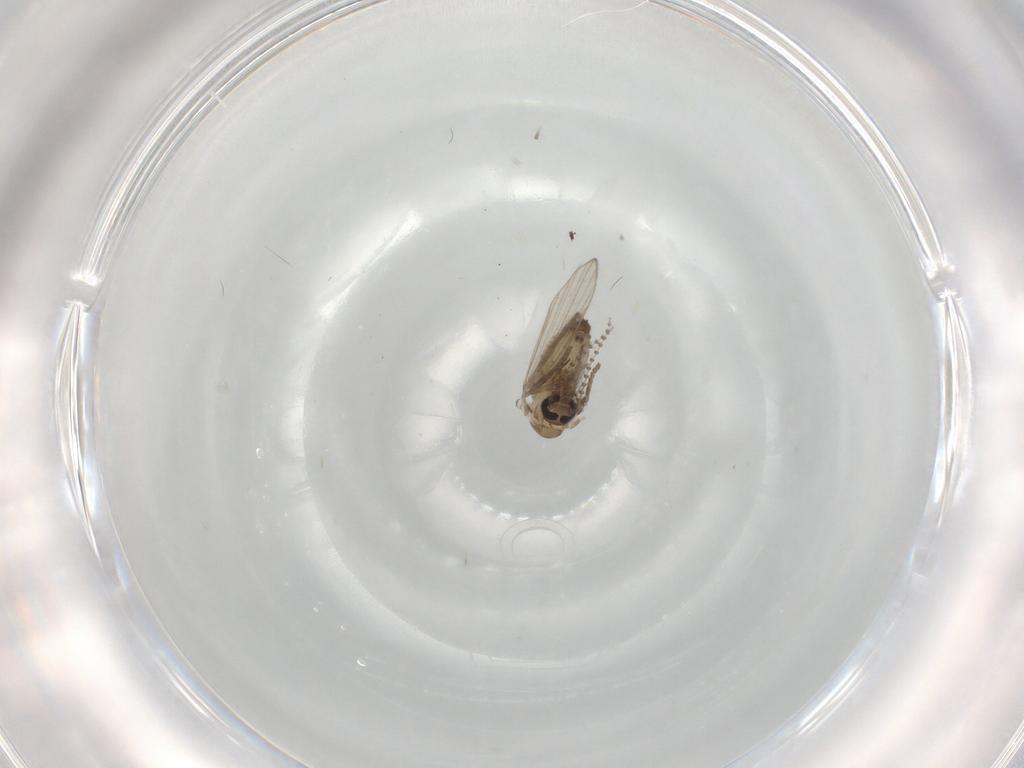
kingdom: Animalia
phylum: Arthropoda
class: Insecta
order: Diptera
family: Psychodidae
